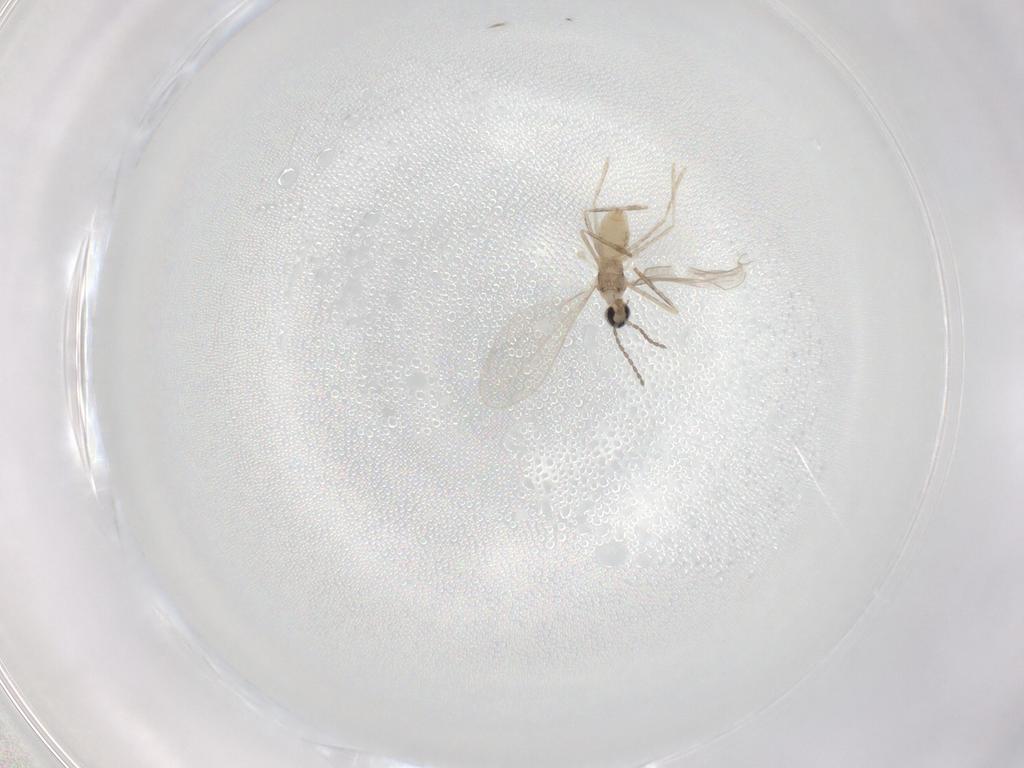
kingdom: Animalia
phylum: Arthropoda
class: Insecta
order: Diptera
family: Cecidomyiidae
